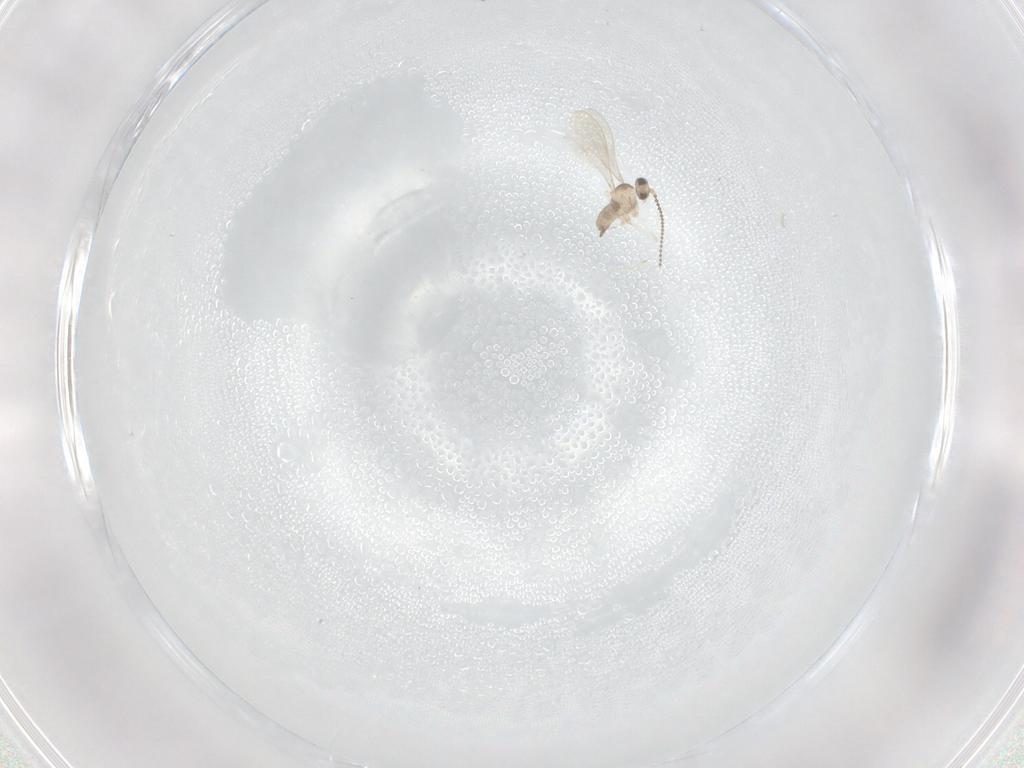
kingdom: Animalia
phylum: Arthropoda
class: Insecta
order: Diptera
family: Cecidomyiidae
